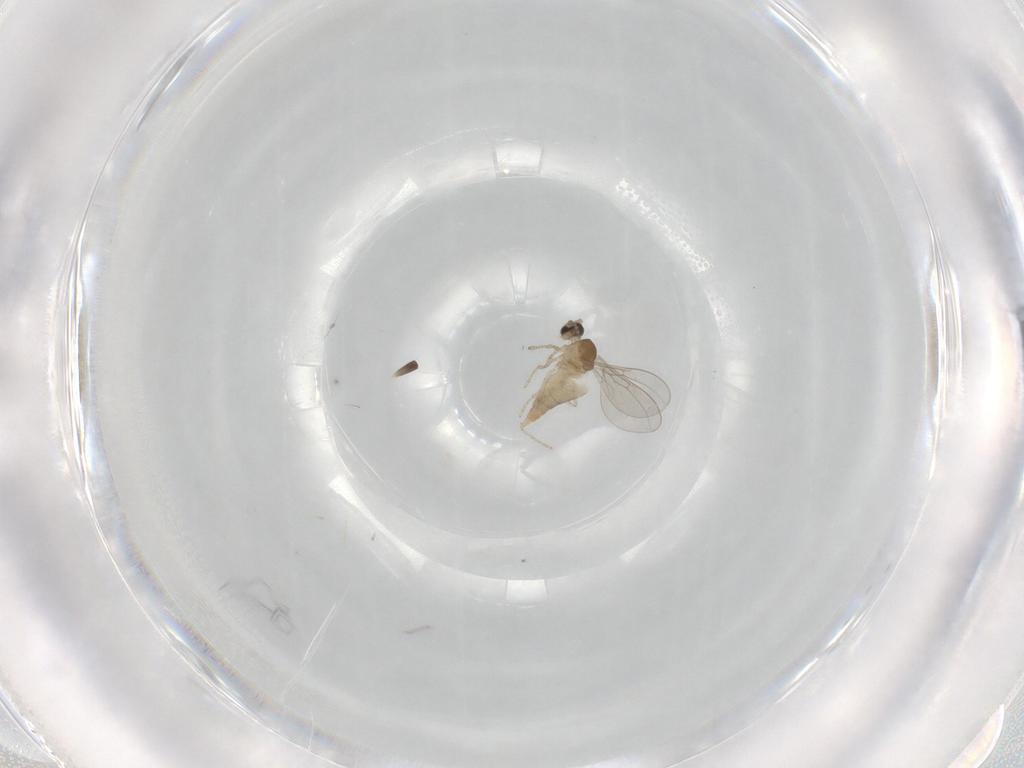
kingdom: Animalia
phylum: Arthropoda
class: Insecta
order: Diptera
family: Cecidomyiidae
